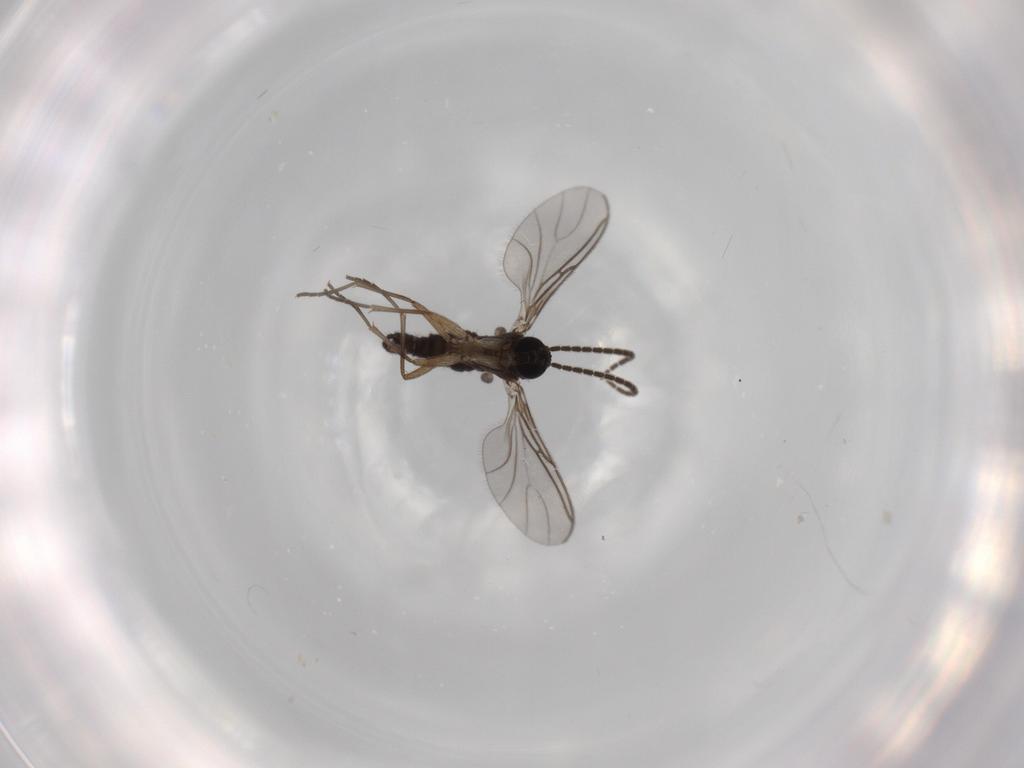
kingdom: Animalia
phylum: Arthropoda
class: Insecta
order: Diptera
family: Sciaridae
